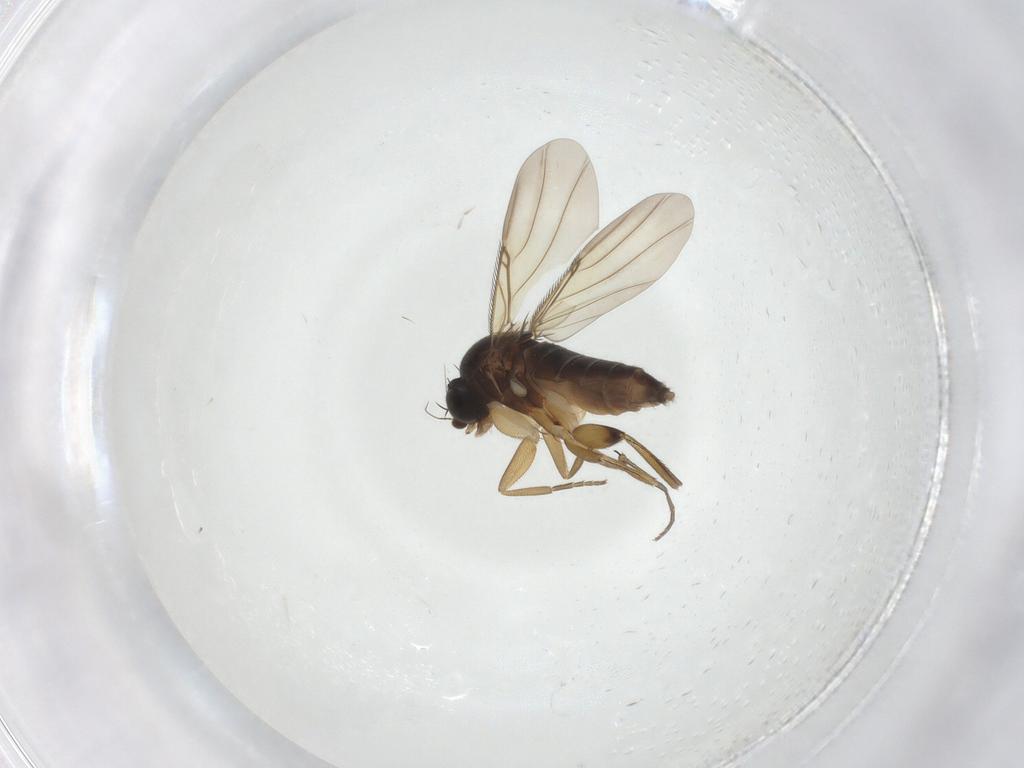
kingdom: Animalia
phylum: Arthropoda
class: Insecta
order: Diptera
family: Phoridae
